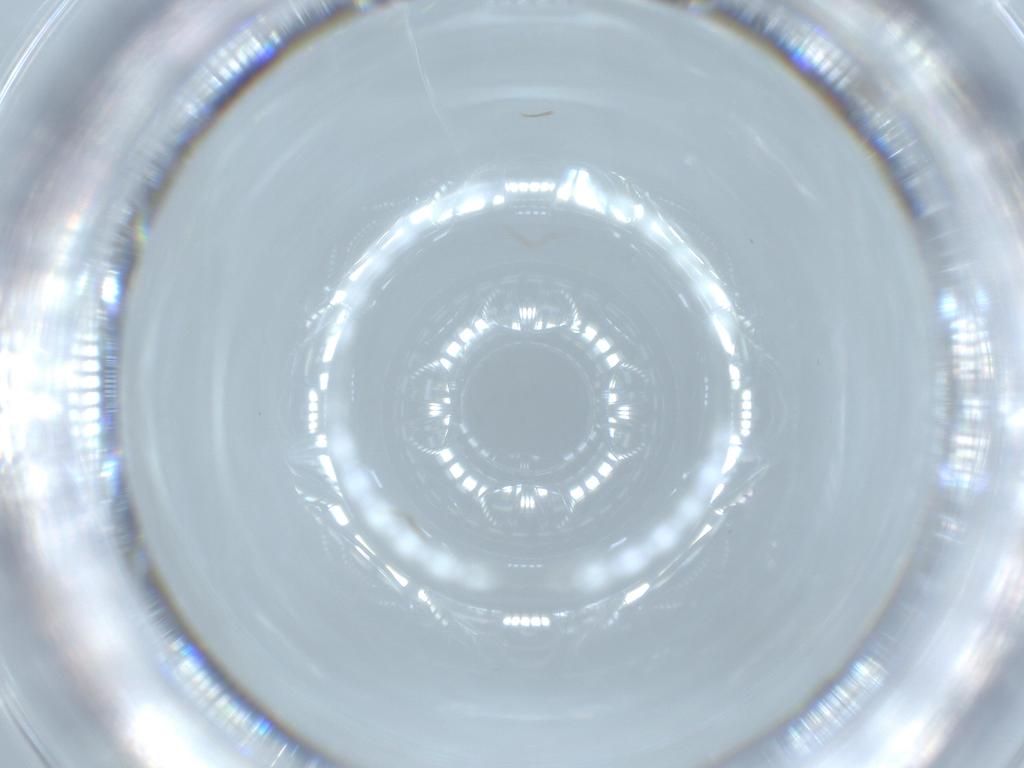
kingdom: Animalia
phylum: Arthropoda
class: Insecta
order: Diptera
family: Cecidomyiidae
